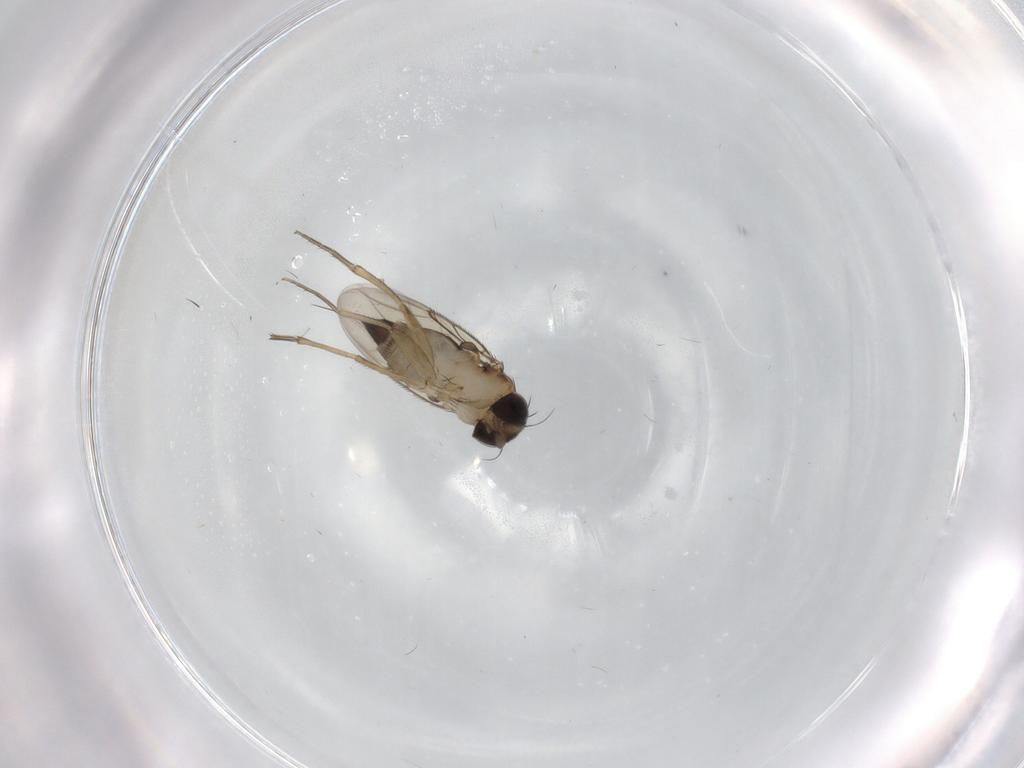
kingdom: Animalia
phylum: Arthropoda
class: Insecta
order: Diptera
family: Phoridae
